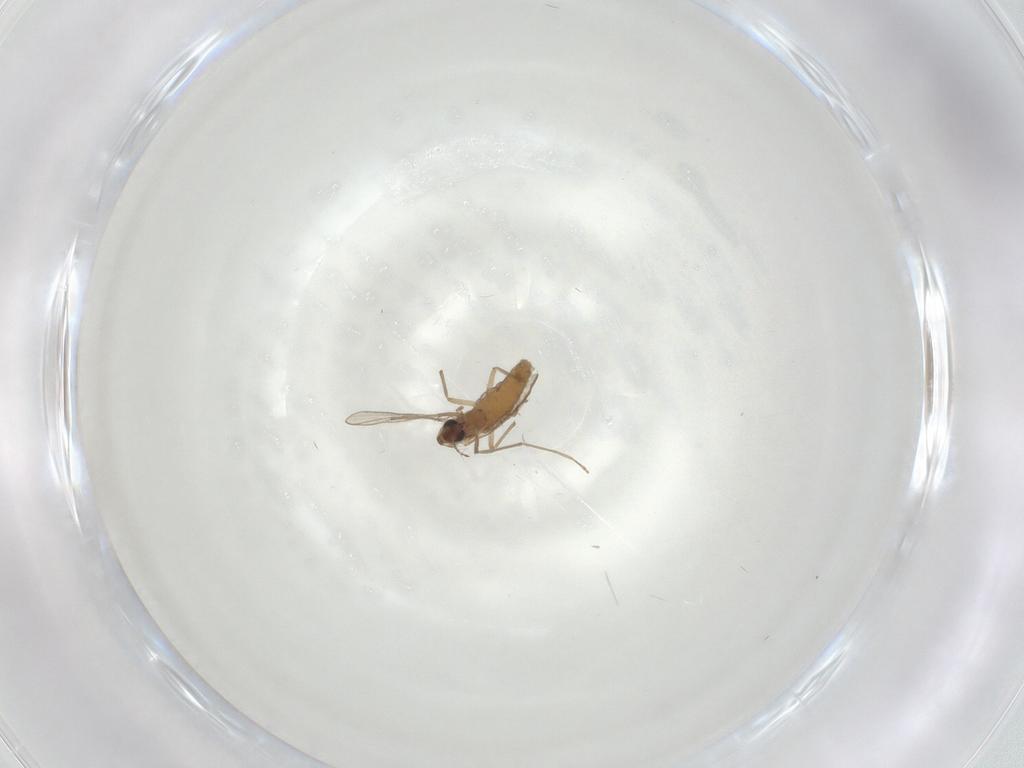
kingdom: Animalia
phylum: Arthropoda
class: Insecta
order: Diptera
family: Chironomidae
